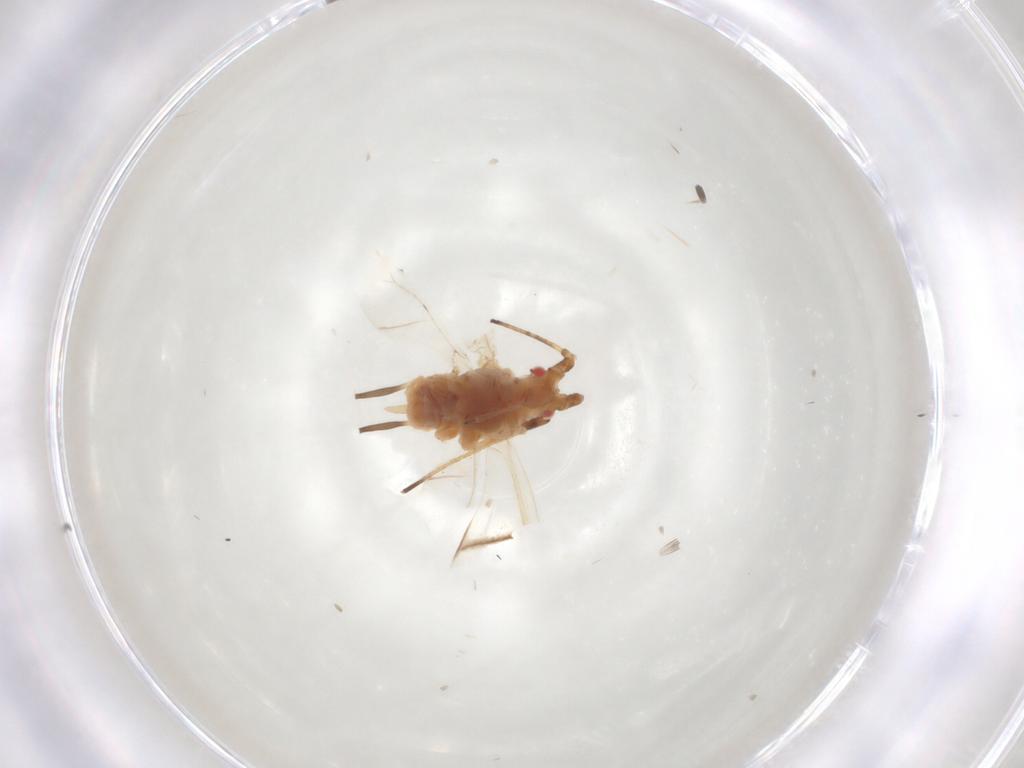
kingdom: Animalia
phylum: Arthropoda
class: Insecta
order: Hemiptera
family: Aphididae
